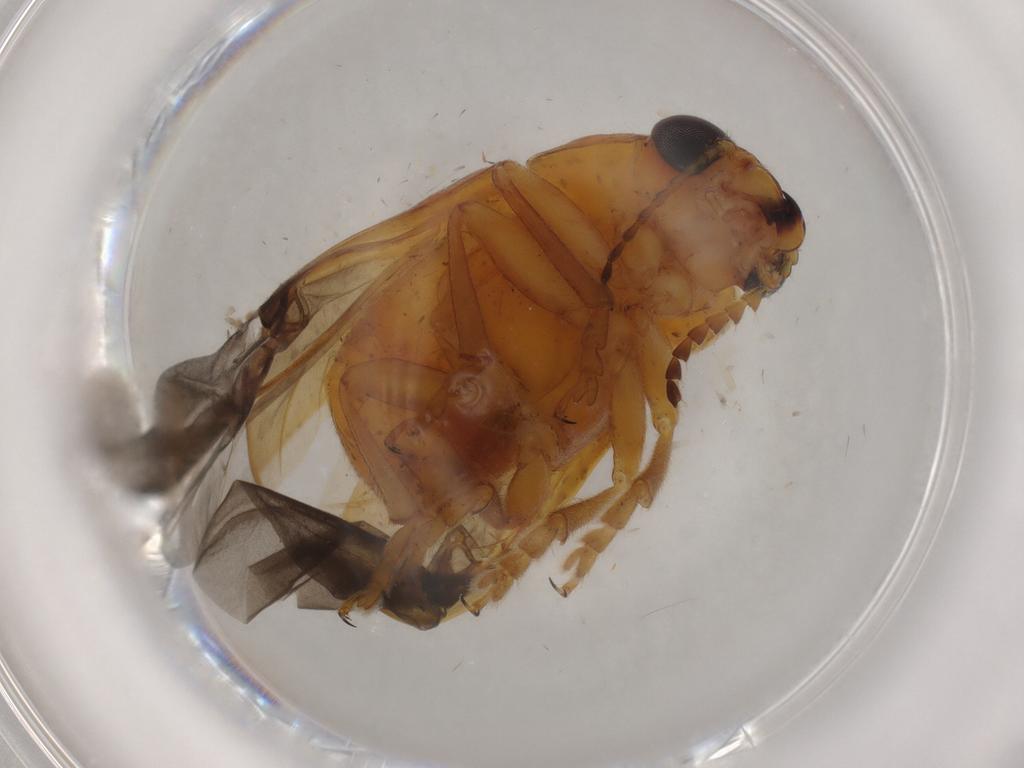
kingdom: Animalia
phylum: Arthropoda
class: Insecta
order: Coleoptera
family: Chrysomelidae
